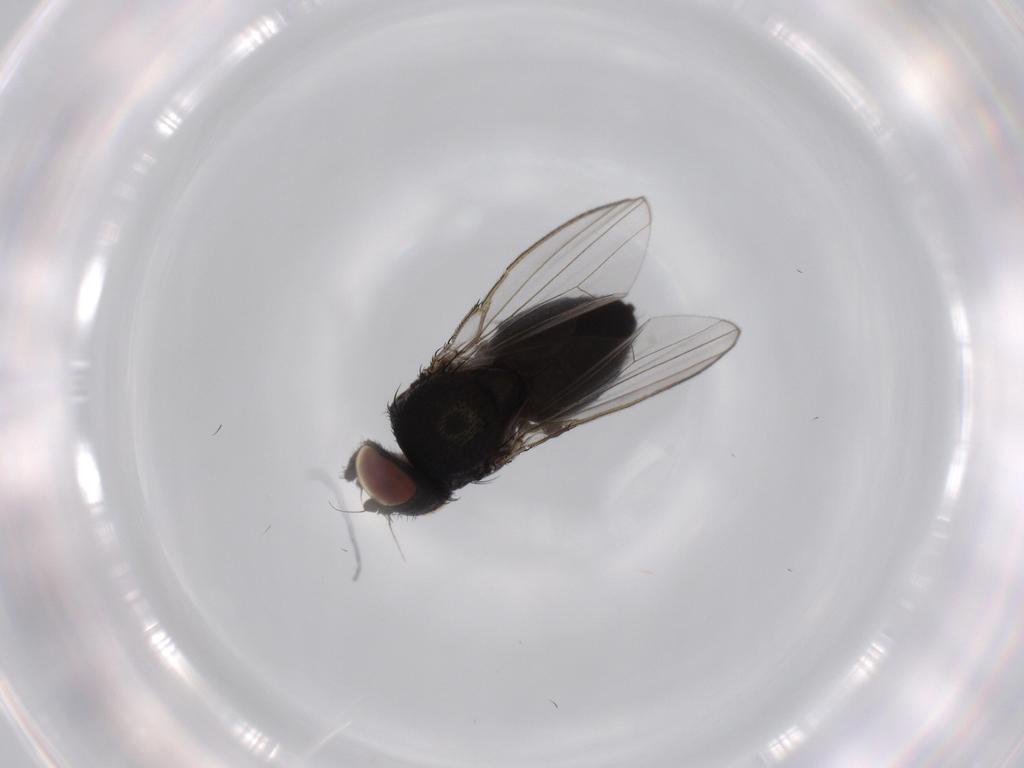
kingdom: Animalia
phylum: Arthropoda
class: Insecta
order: Diptera
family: Milichiidae
